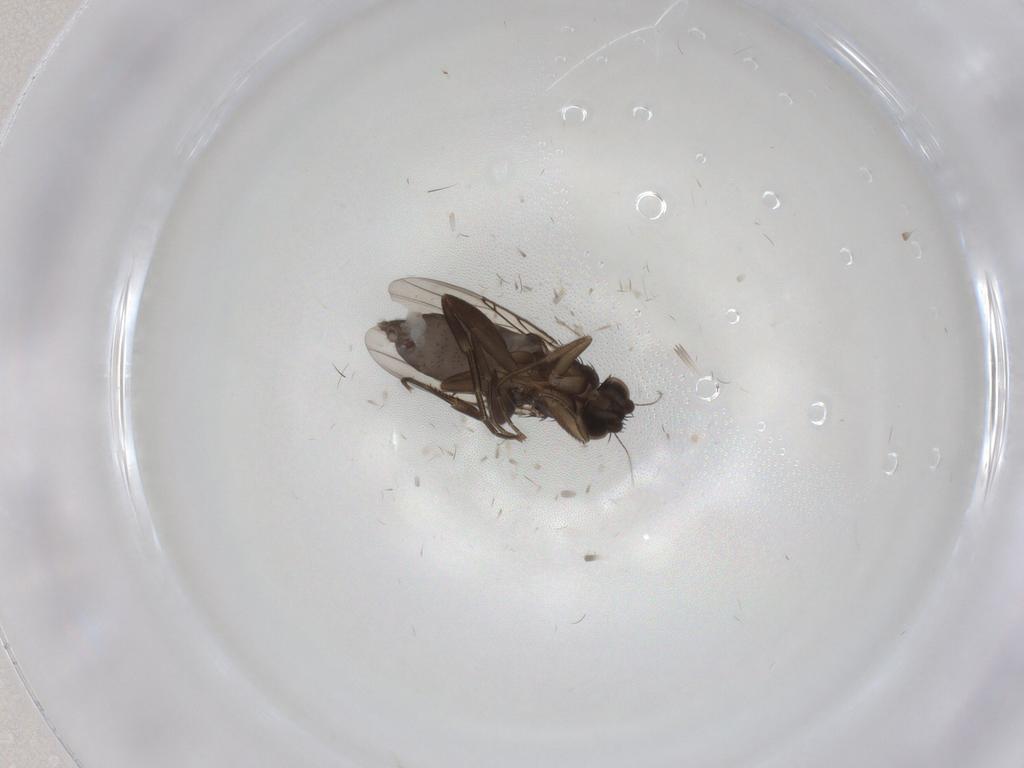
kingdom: Animalia
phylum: Arthropoda
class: Insecta
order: Diptera
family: Phoridae
